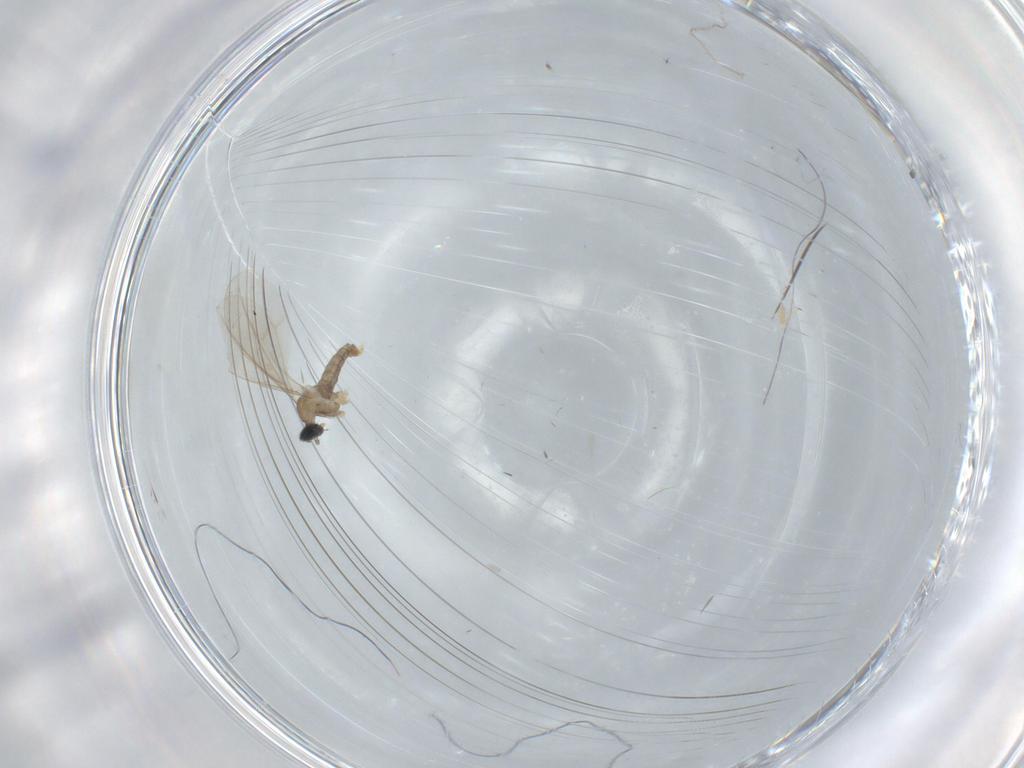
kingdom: Animalia
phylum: Arthropoda
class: Insecta
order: Diptera
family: Cecidomyiidae
